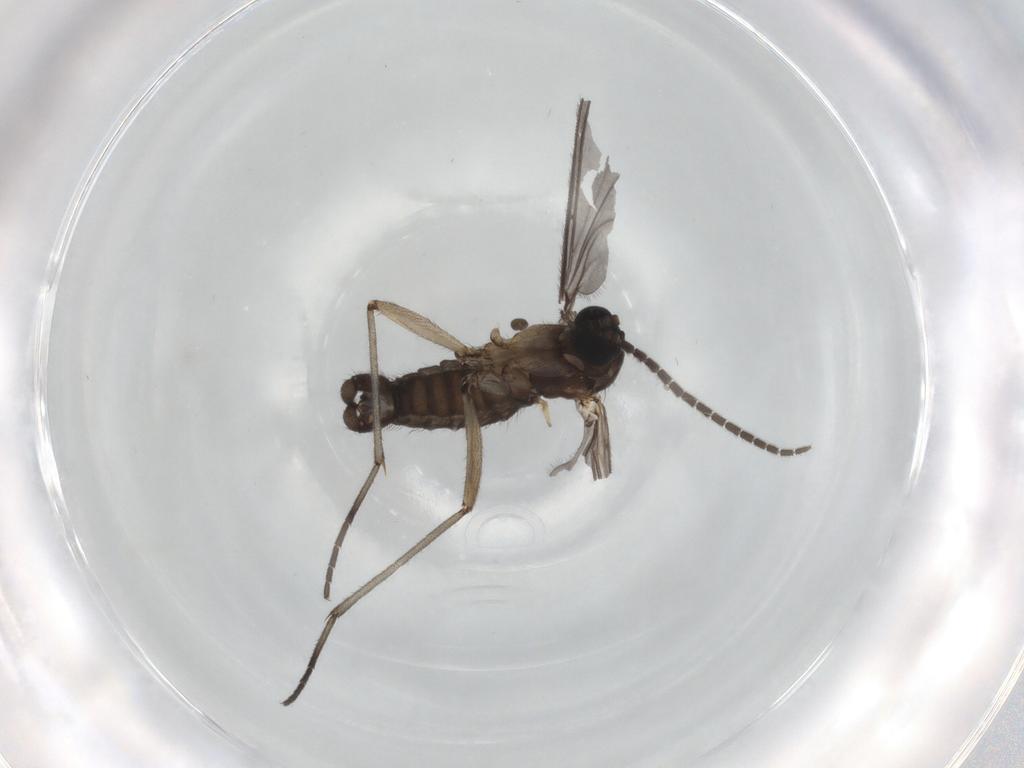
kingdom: Animalia
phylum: Arthropoda
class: Insecta
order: Diptera
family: Sciaridae
